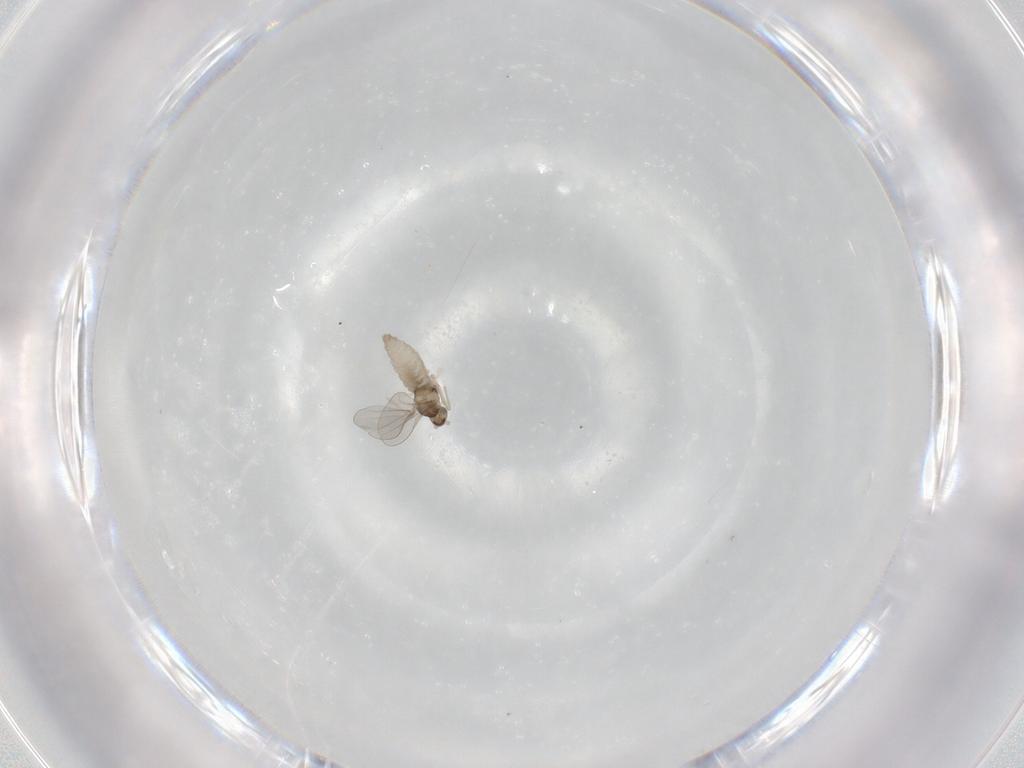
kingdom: Animalia
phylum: Arthropoda
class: Insecta
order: Diptera
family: Cecidomyiidae
